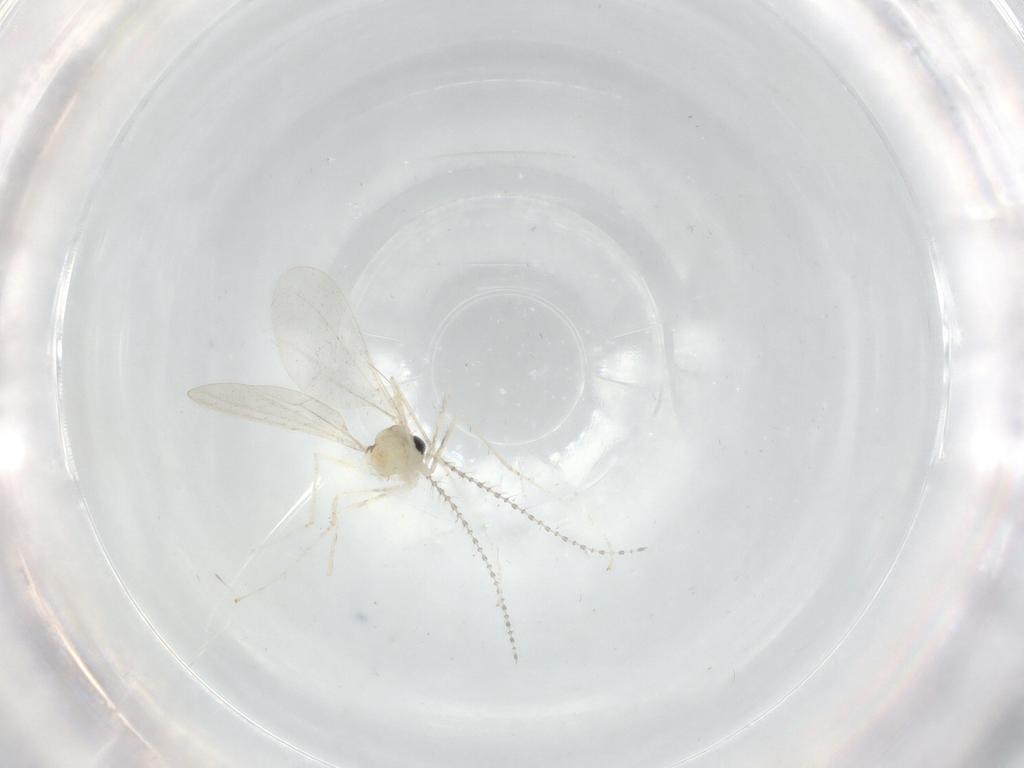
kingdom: Animalia
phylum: Arthropoda
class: Insecta
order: Diptera
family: Cecidomyiidae
